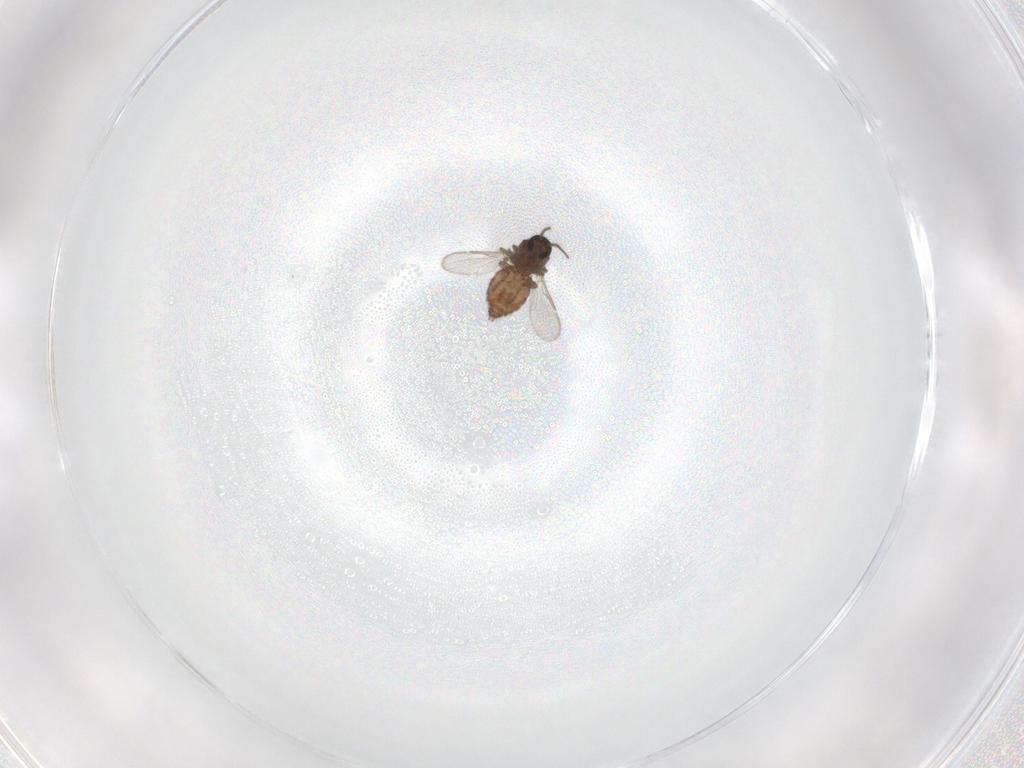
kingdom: Animalia
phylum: Arthropoda
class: Insecta
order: Diptera
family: Ceratopogonidae
